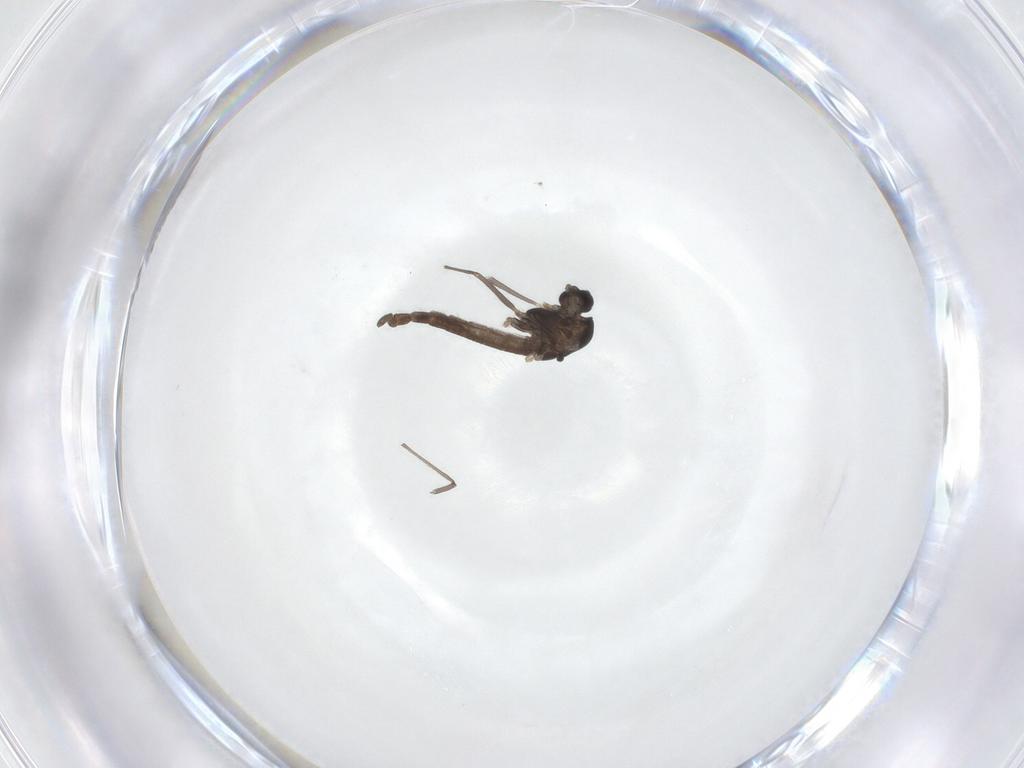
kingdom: Animalia
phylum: Arthropoda
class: Insecta
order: Diptera
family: Chironomidae
